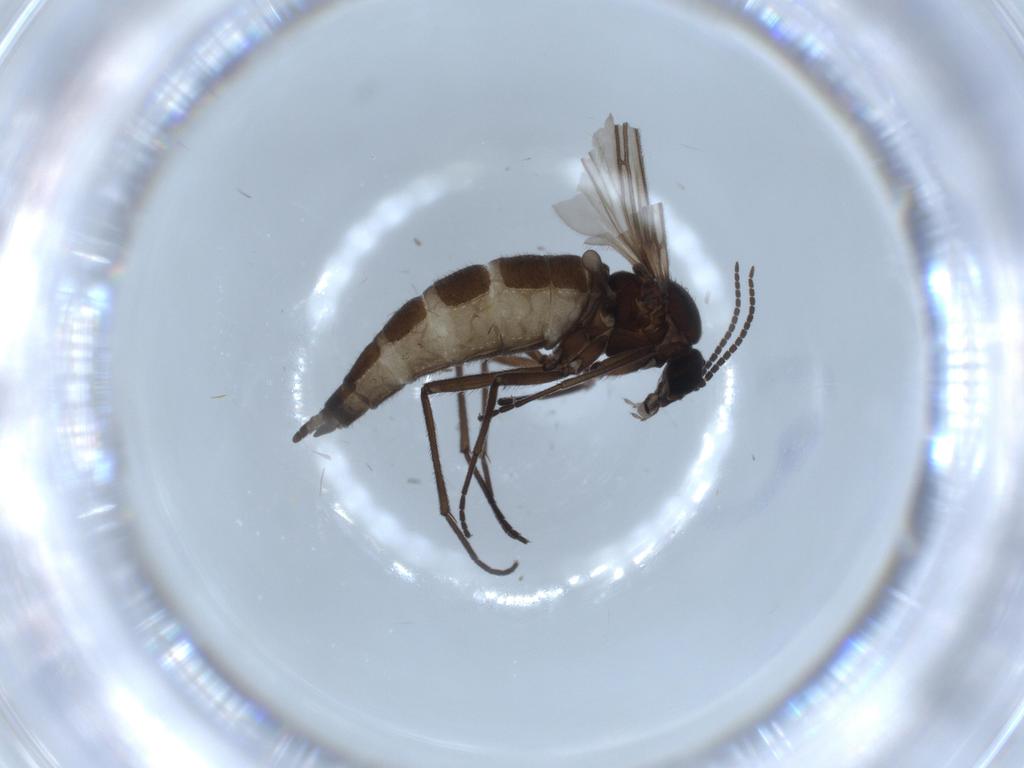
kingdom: Animalia
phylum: Arthropoda
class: Insecta
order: Diptera
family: Sciaridae
